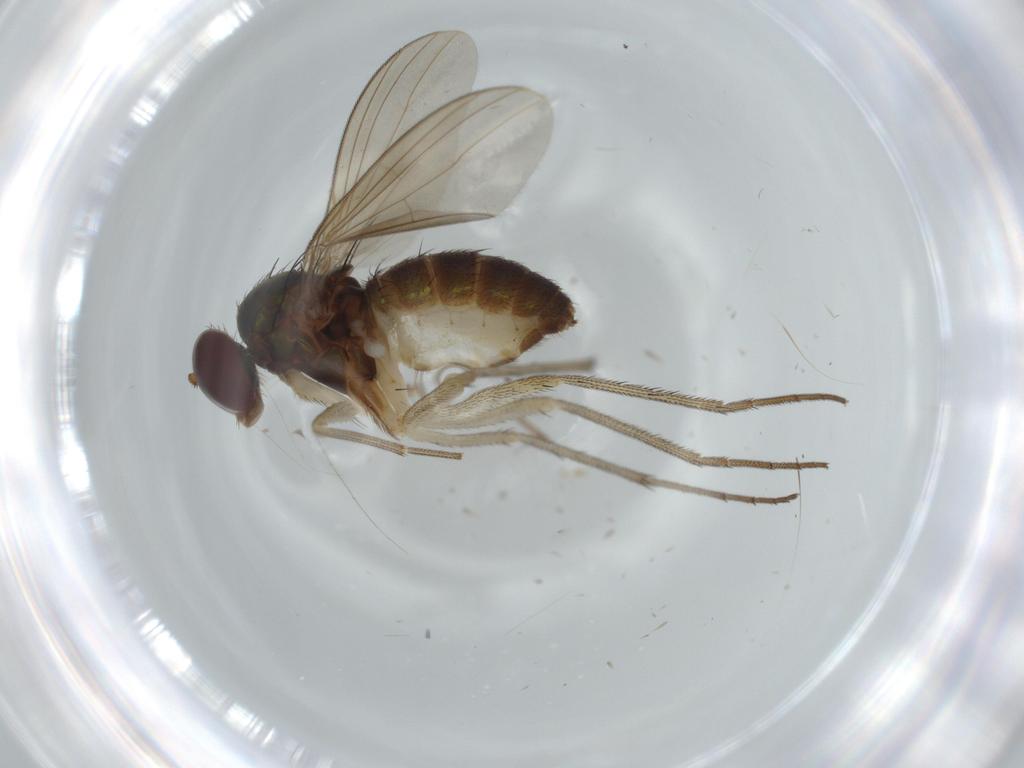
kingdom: Animalia
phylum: Arthropoda
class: Insecta
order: Diptera
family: Dolichopodidae
